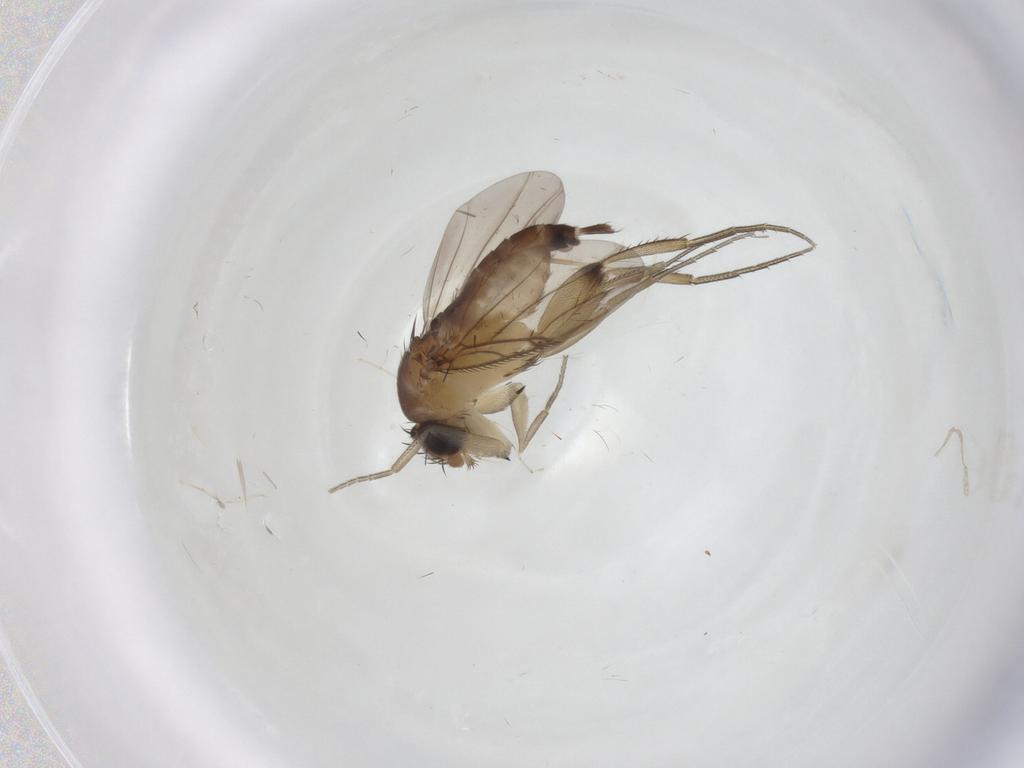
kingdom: Animalia
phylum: Arthropoda
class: Insecta
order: Diptera
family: Phoridae
